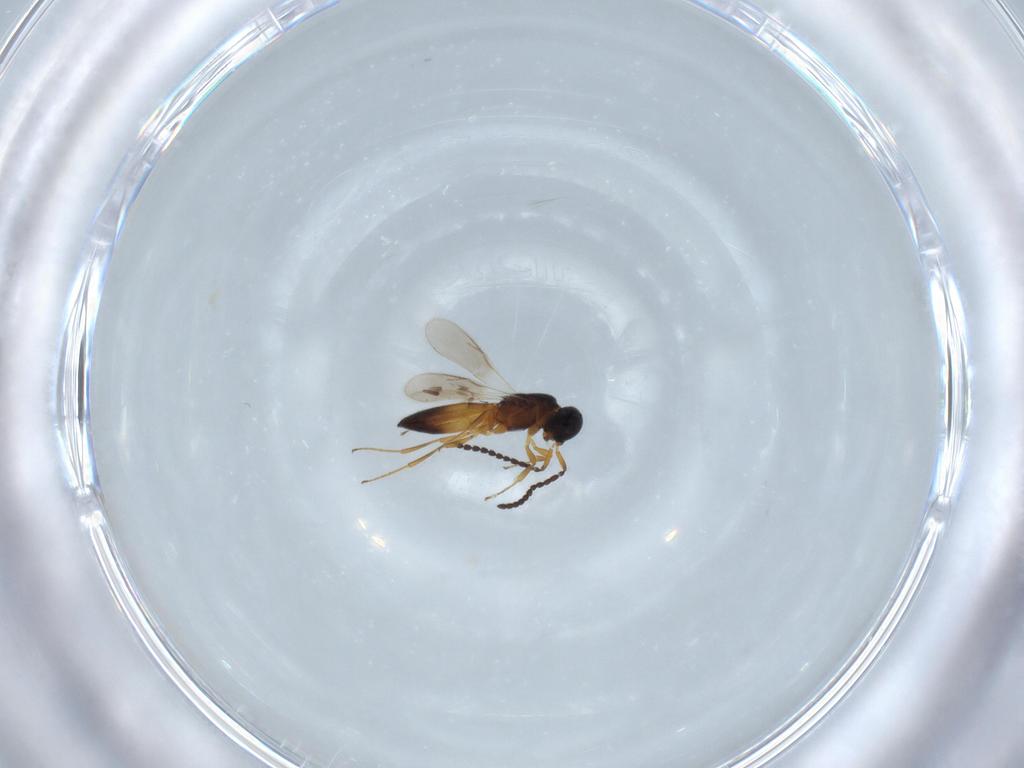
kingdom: Animalia
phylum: Arthropoda
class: Insecta
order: Hymenoptera
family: Scelionidae
